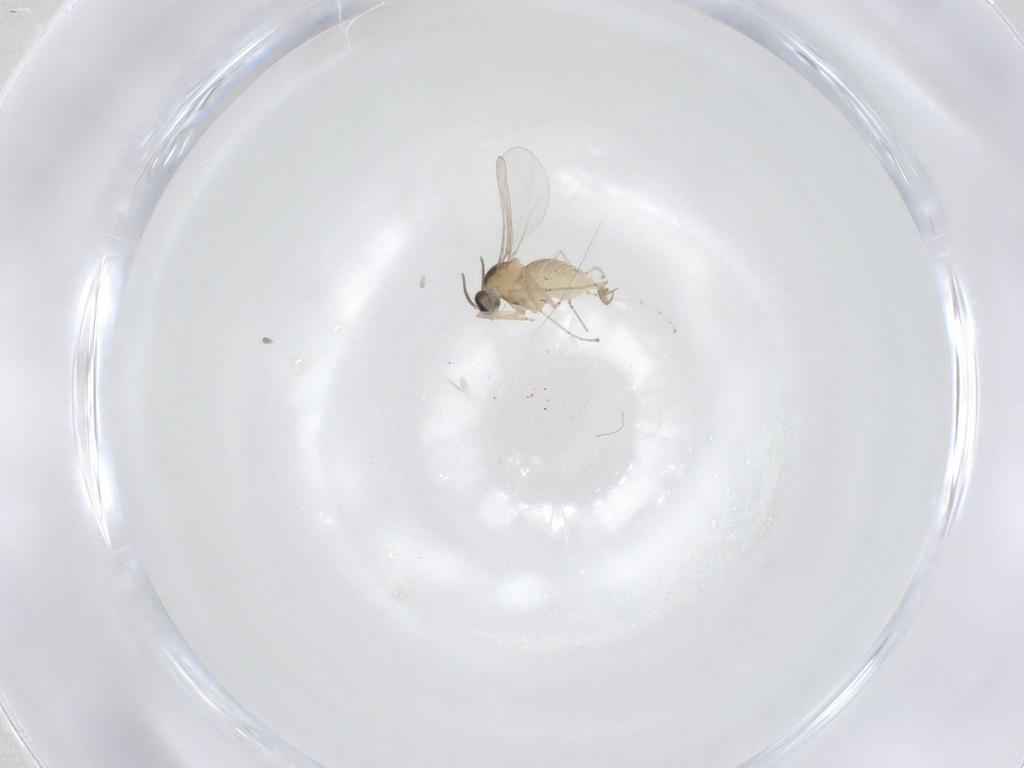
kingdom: Animalia
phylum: Arthropoda
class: Insecta
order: Diptera
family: Cecidomyiidae
